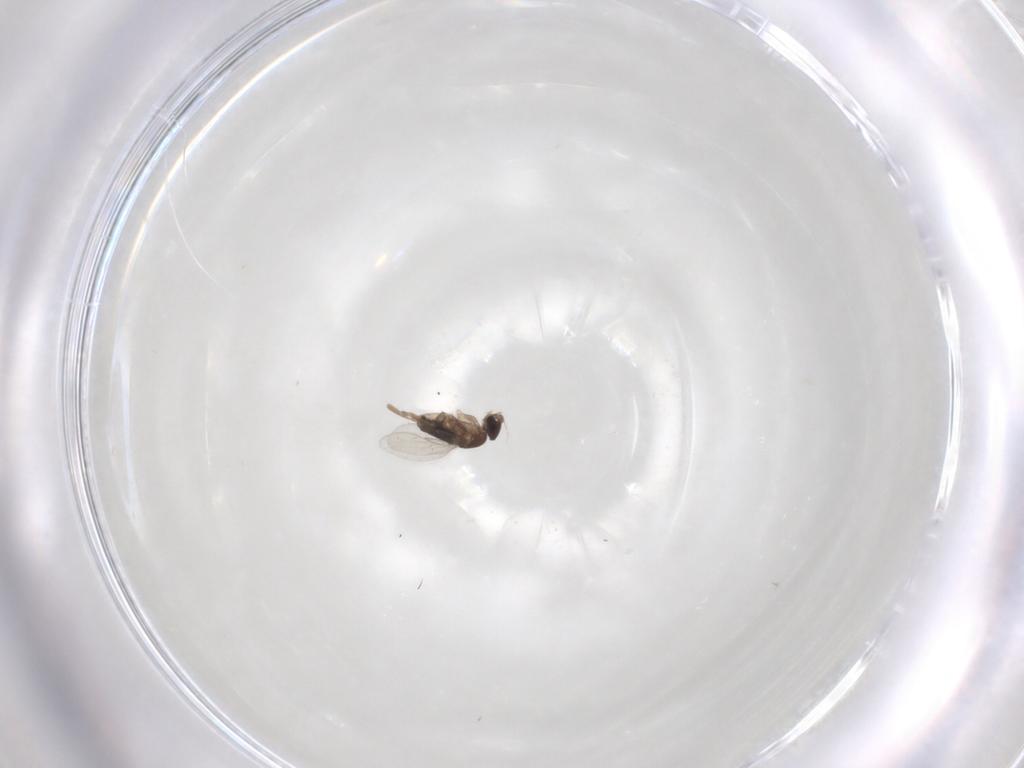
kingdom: Animalia
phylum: Arthropoda
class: Insecta
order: Diptera
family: Phoridae
